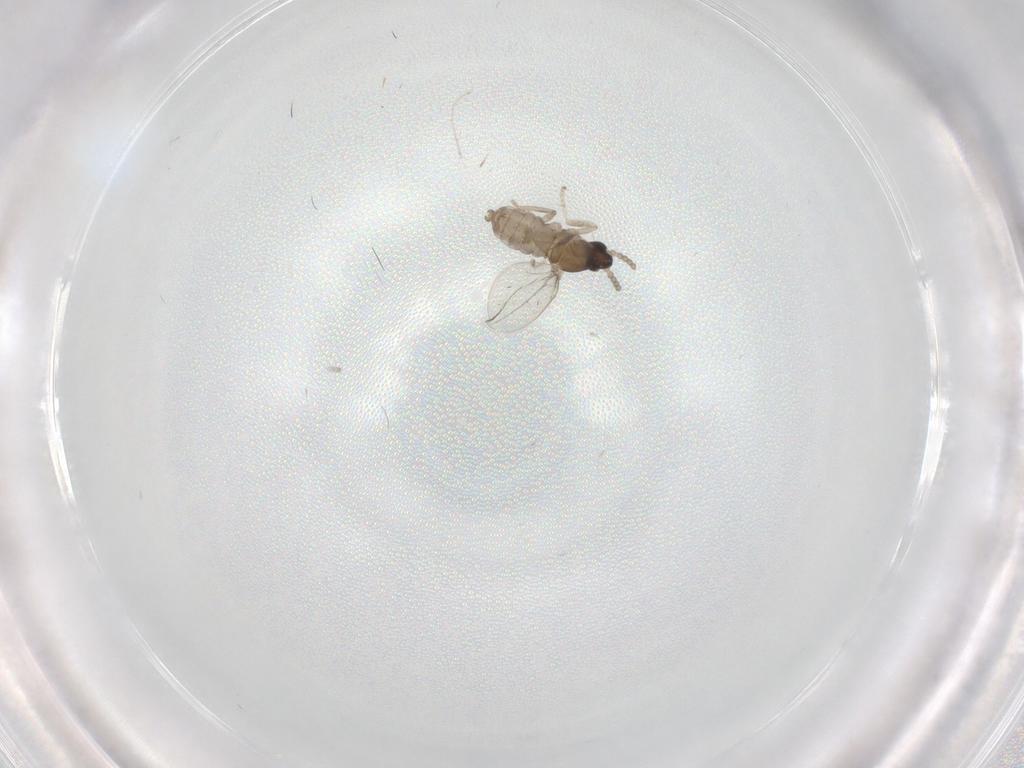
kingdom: Animalia
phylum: Arthropoda
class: Insecta
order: Diptera
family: Cecidomyiidae
